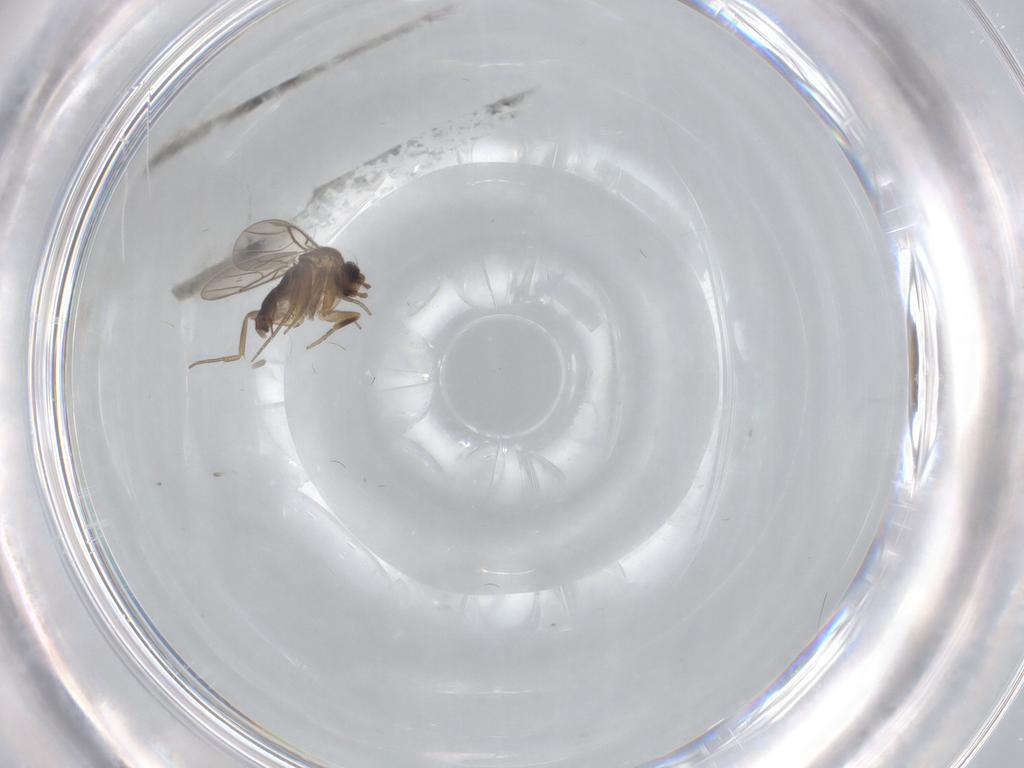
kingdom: Animalia
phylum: Arthropoda
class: Insecta
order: Diptera
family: Phoridae
